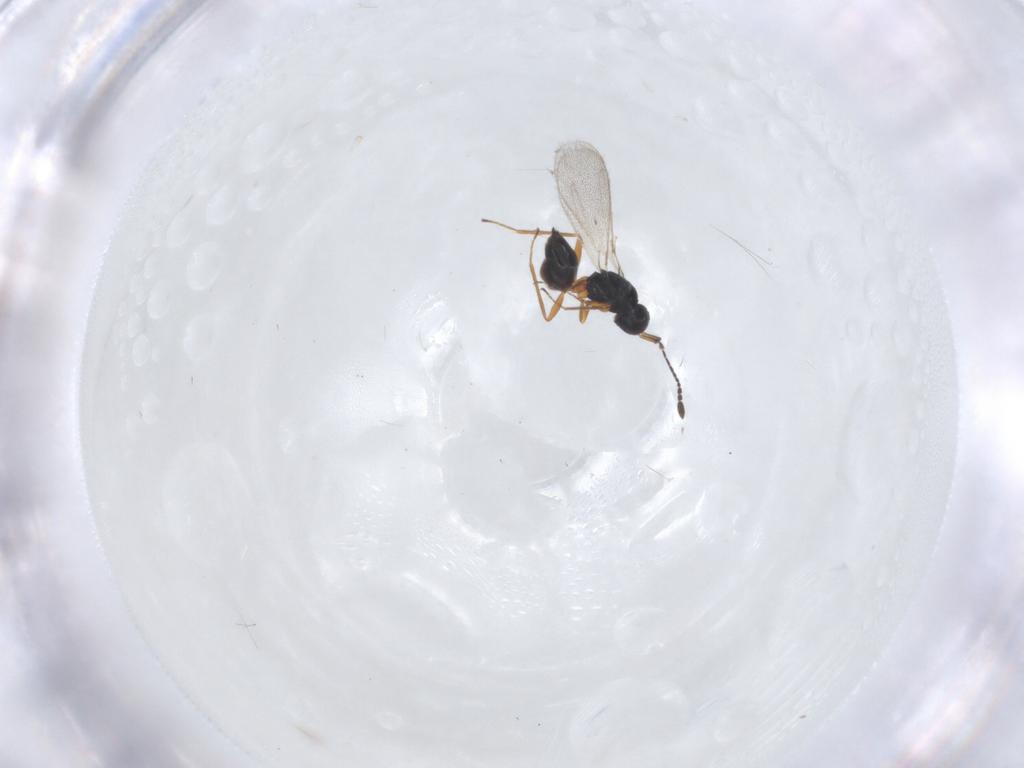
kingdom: Animalia
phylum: Arthropoda
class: Insecta
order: Hymenoptera
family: Mymaridae
